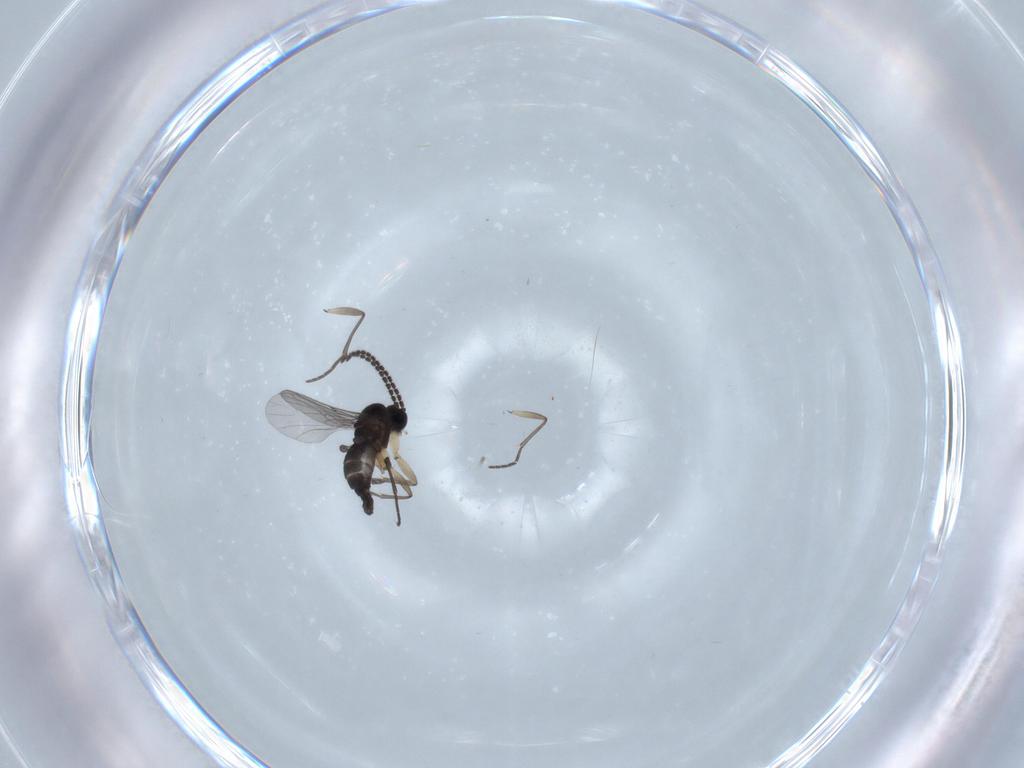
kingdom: Animalia
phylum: Arthropoda
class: Insecta
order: Diptera
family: Sciaridae
